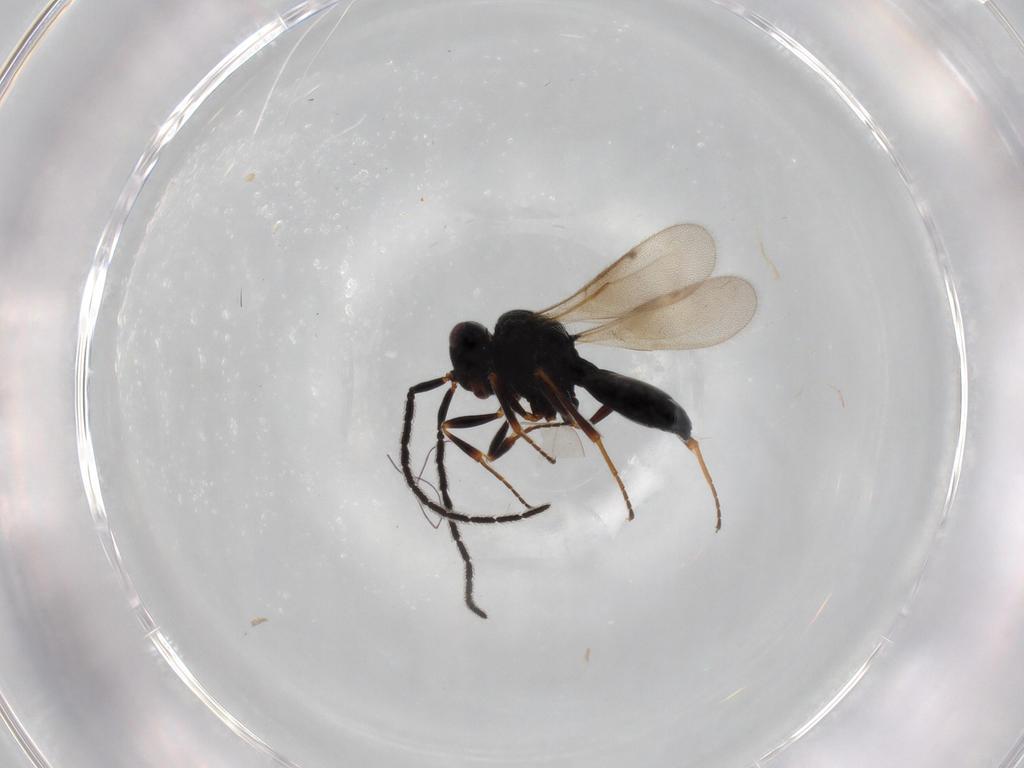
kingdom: Animalia
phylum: Arthropoda
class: Insecta
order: Hymenoptera
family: Scelionidae
